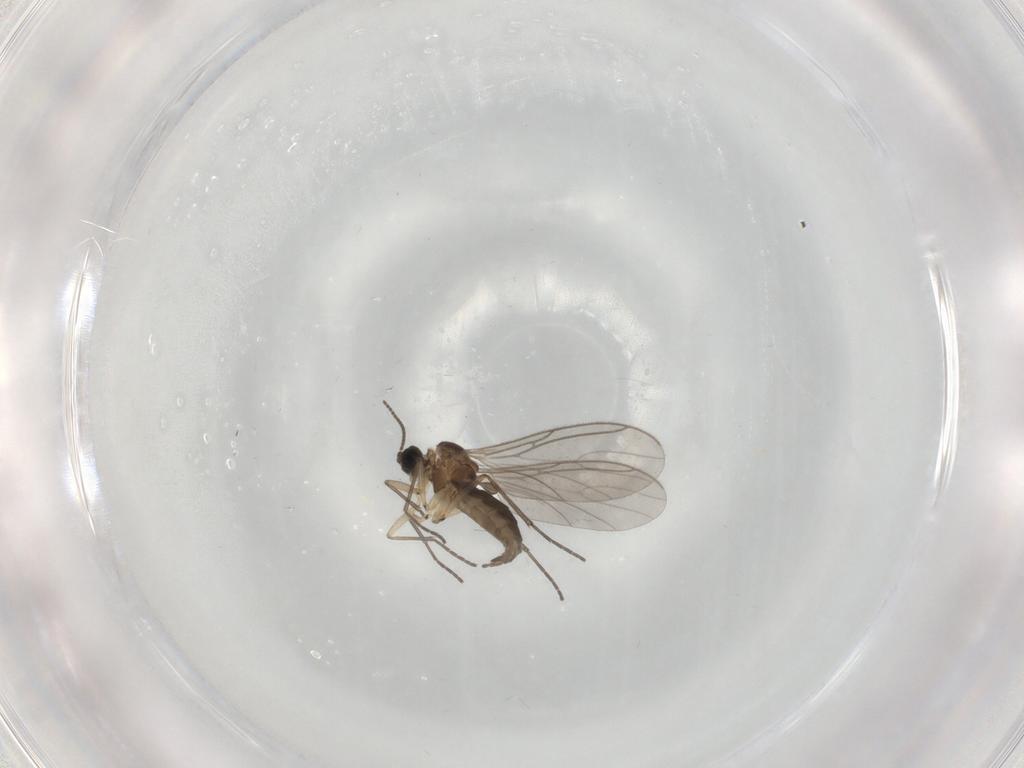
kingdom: Animalia
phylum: Arthropoda
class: Insecta
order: Diptera
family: Sciaridae
